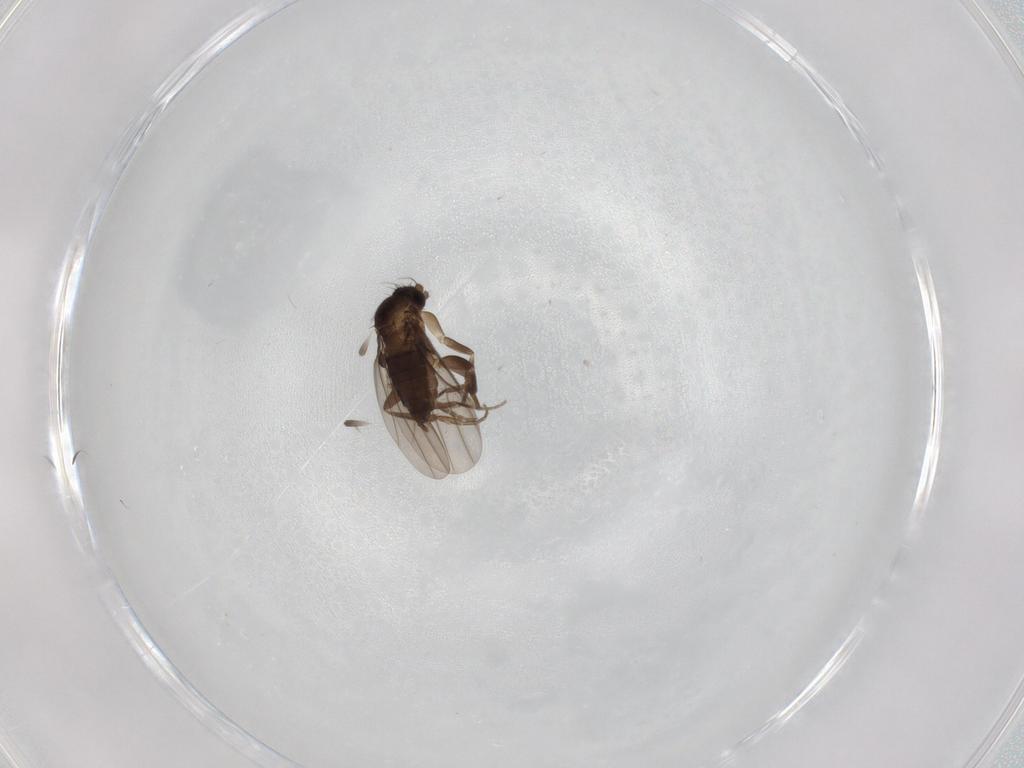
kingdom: Animalia
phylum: Arthropoda
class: Insecta
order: Diptera
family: Phoridae
